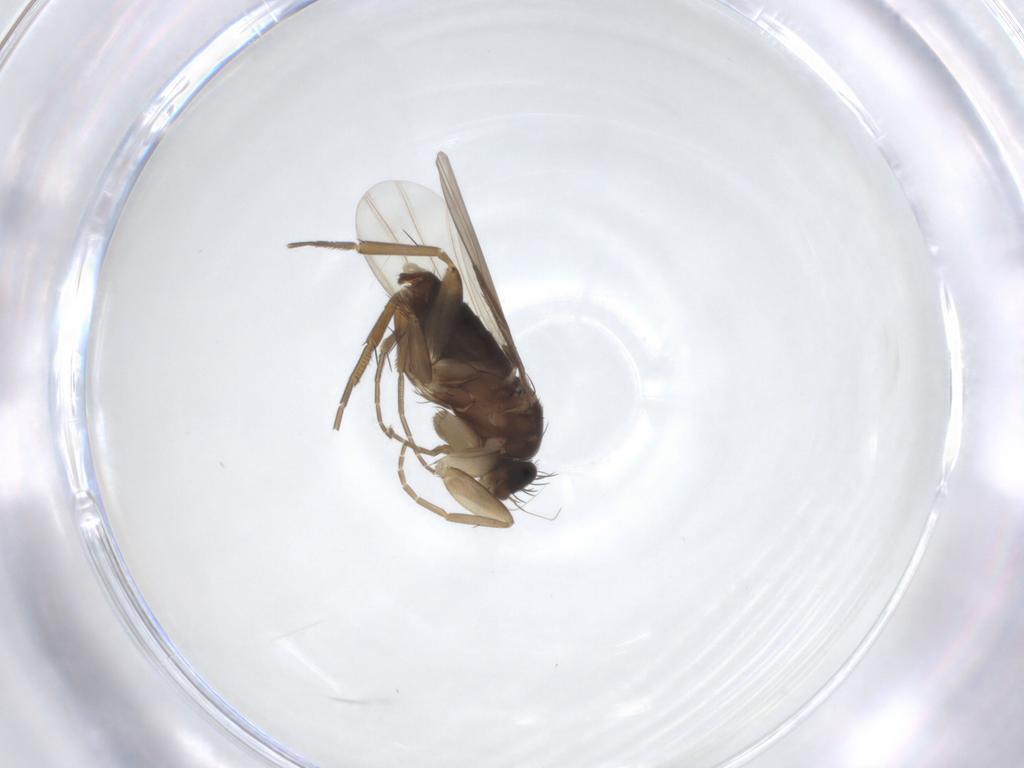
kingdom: Animalia
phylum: Arthropoda
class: Insecta
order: Diptera
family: Phoridae
